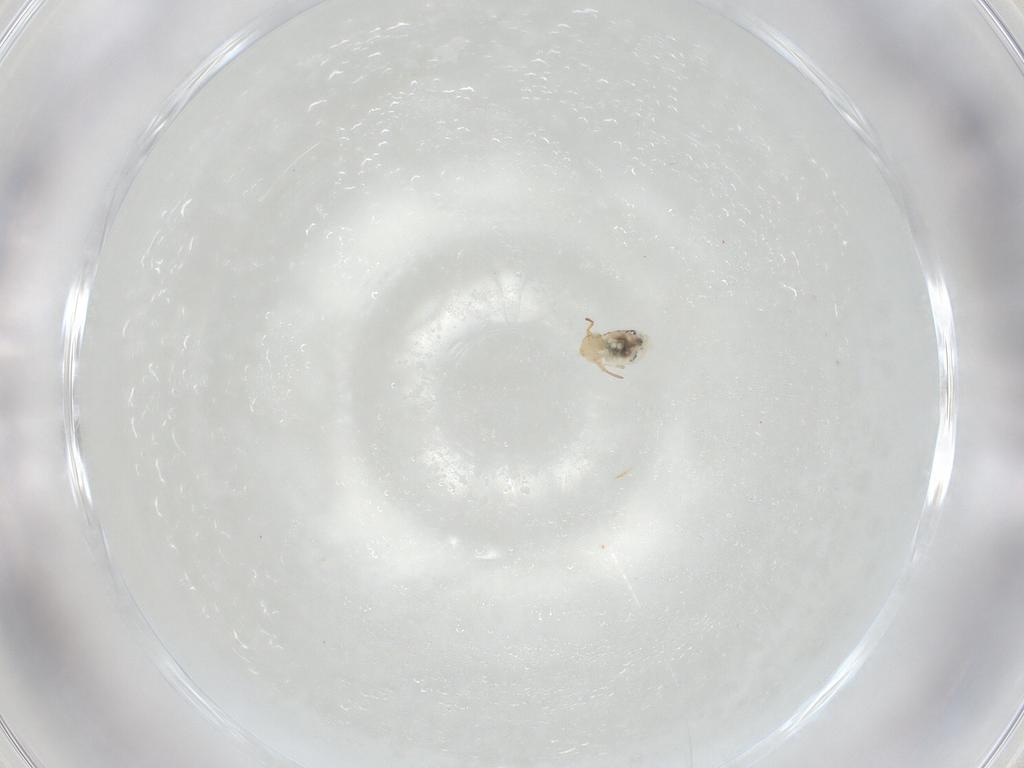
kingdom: Animalia
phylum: Arthropoda
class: Collembola
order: Symphypleona
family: Bourletiellidae
